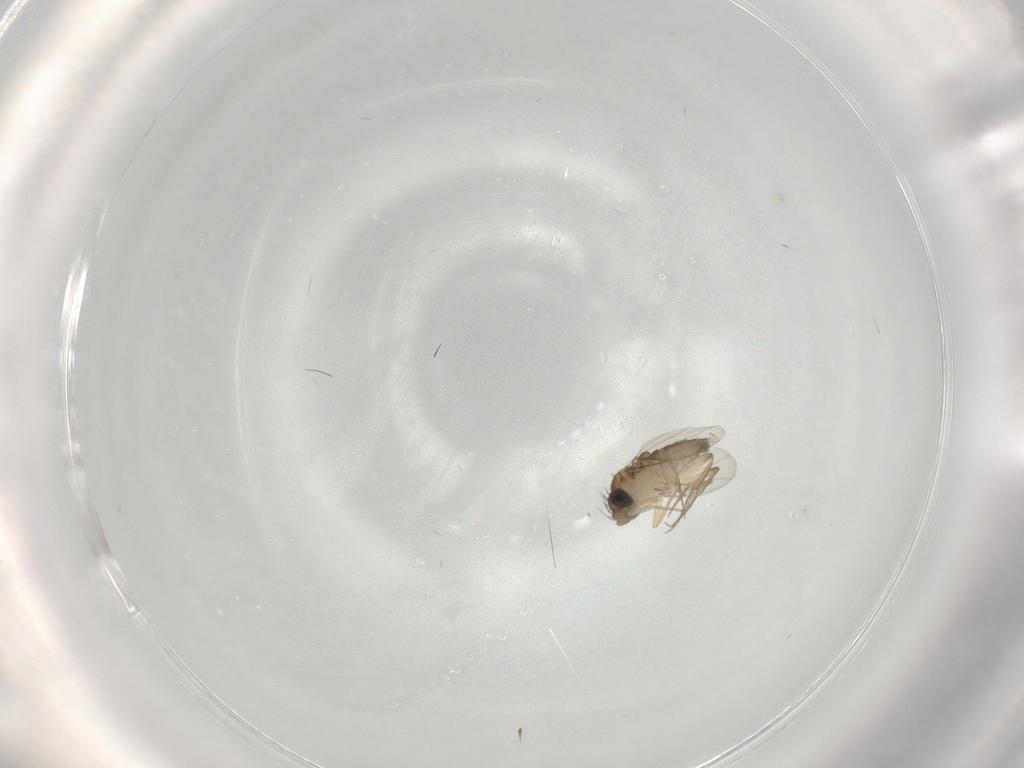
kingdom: Animalia
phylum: Arthropoda
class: Insecta
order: Diptera
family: Phoridae
